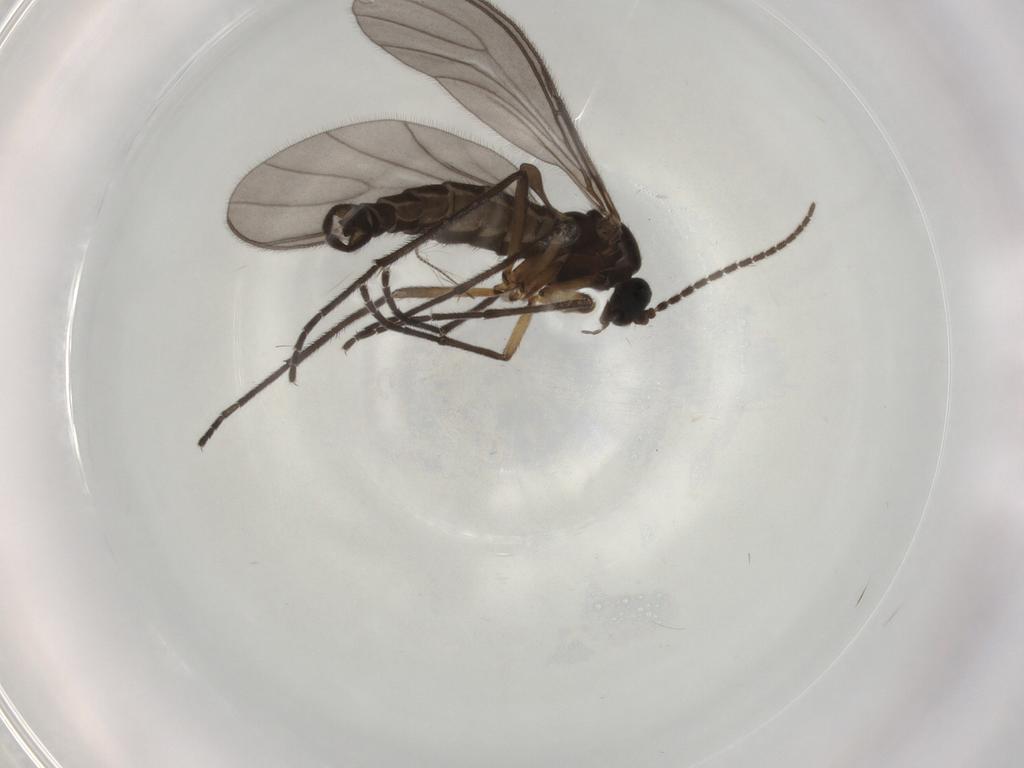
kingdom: Animalia
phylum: Arthropoda
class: Insecta
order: Diptera
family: Sciaridae
